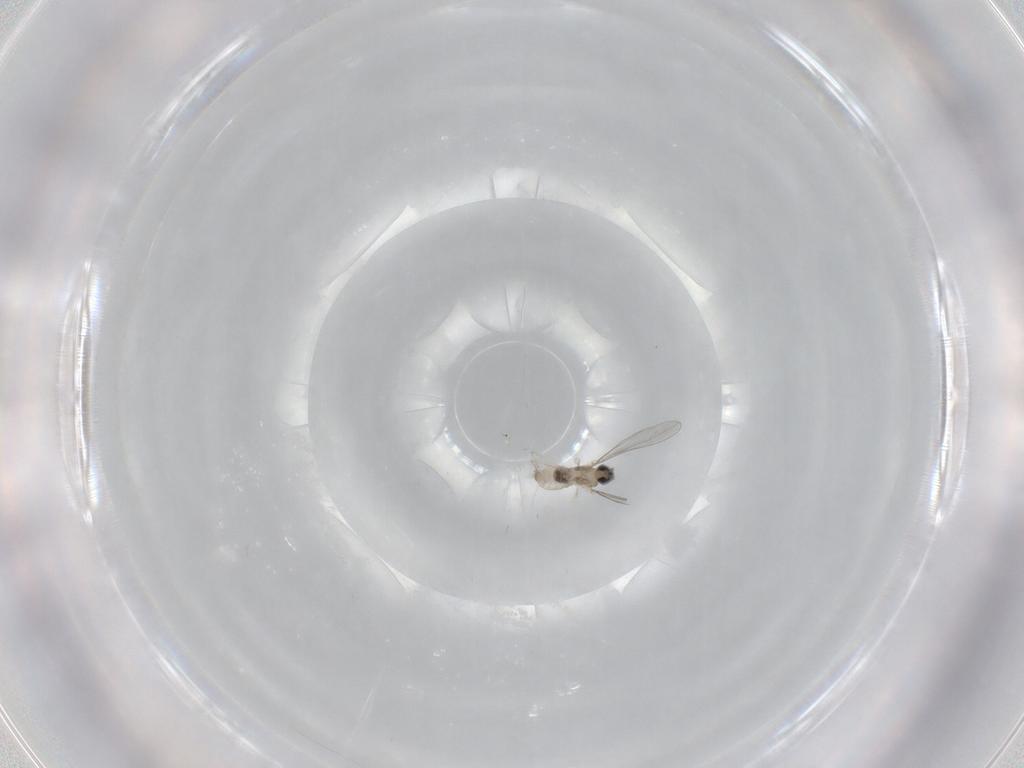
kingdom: Animalia
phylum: Arthropoda
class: Insecta
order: Diptera
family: Cecidomyiidae
